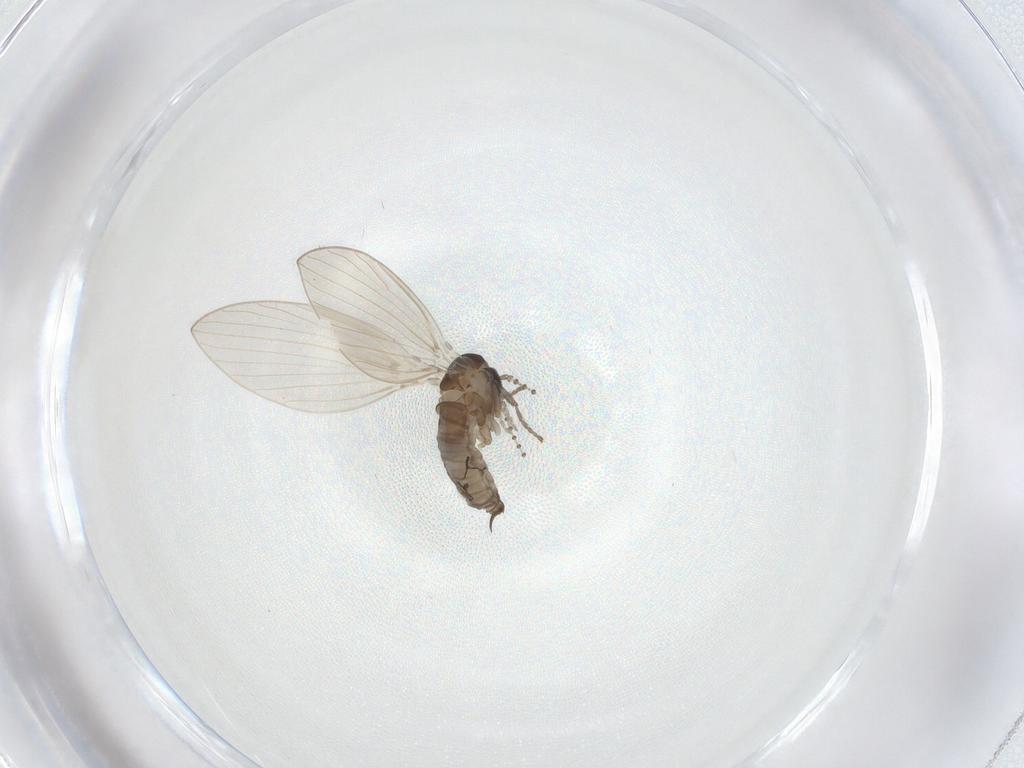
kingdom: Animalia
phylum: Arthropoda
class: Insecta
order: Diptera
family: Psychodidae
